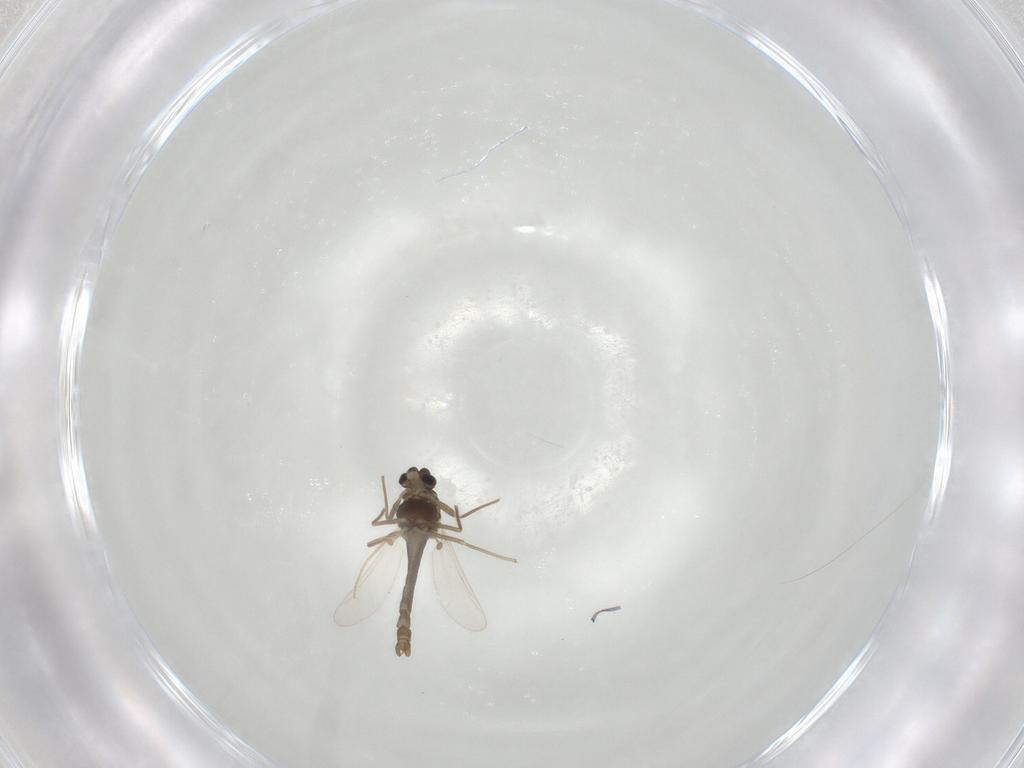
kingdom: Animalia
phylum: Arthropoda
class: Insecta
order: Diptera
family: Chironomidae
